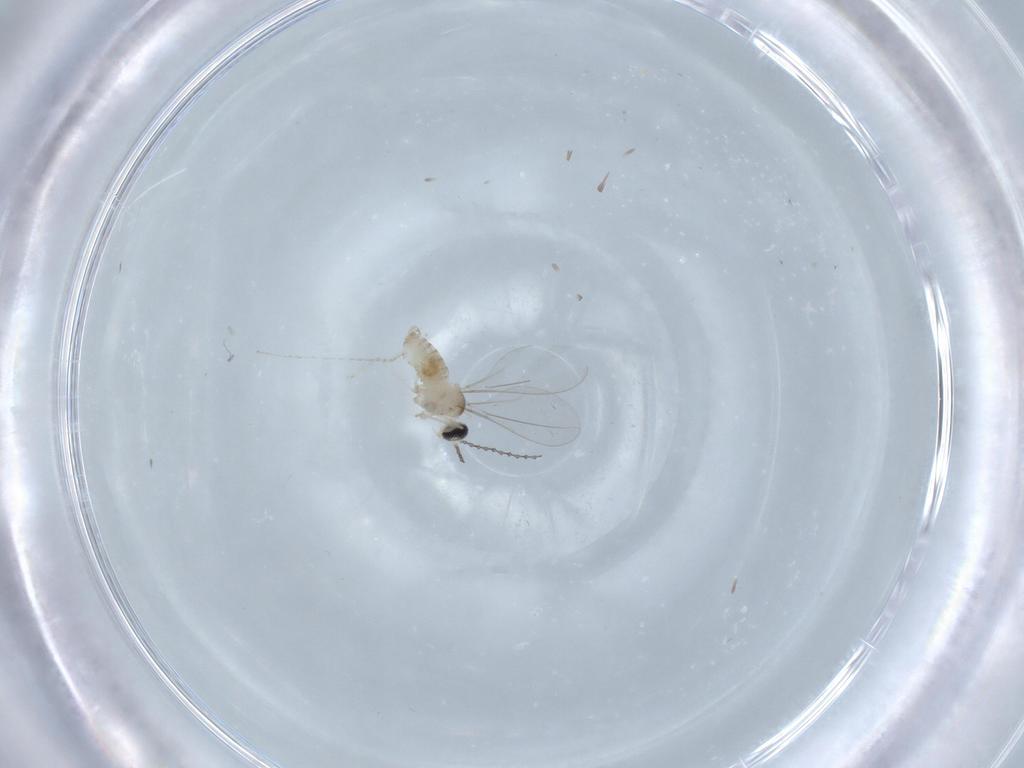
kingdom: Animalia
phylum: Arthropoda
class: Insecta
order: Diptera
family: Cecidomyiidae
